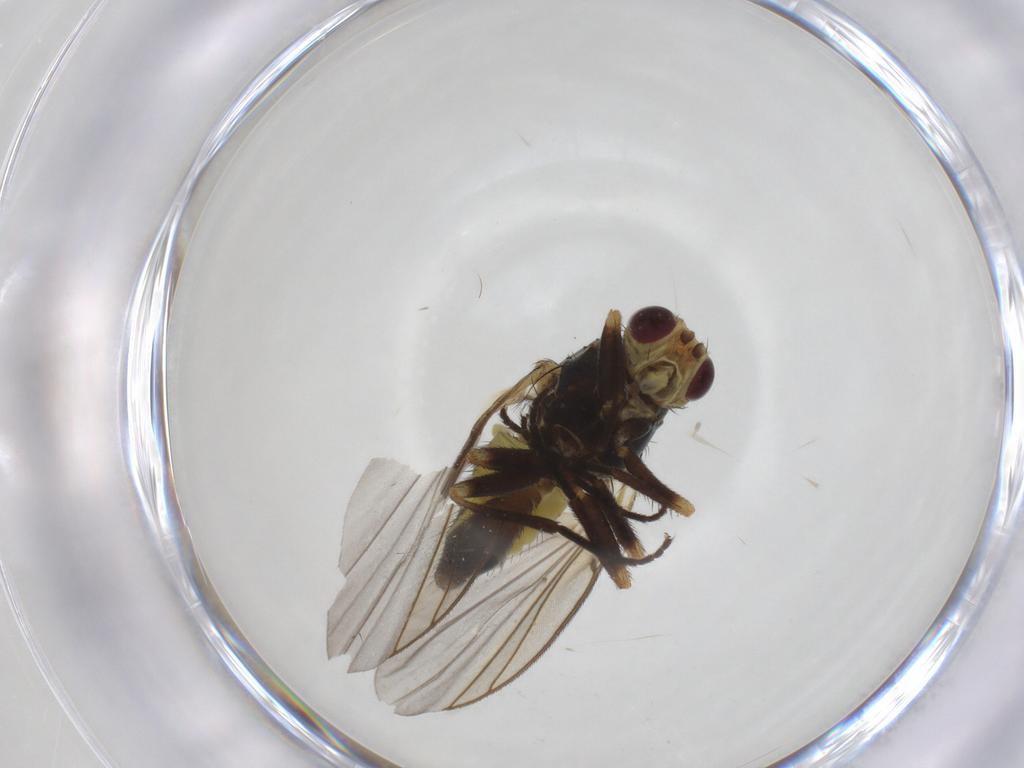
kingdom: Animalia
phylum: Arthropoda
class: Insecta
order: Diptera
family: Agromyzidae
